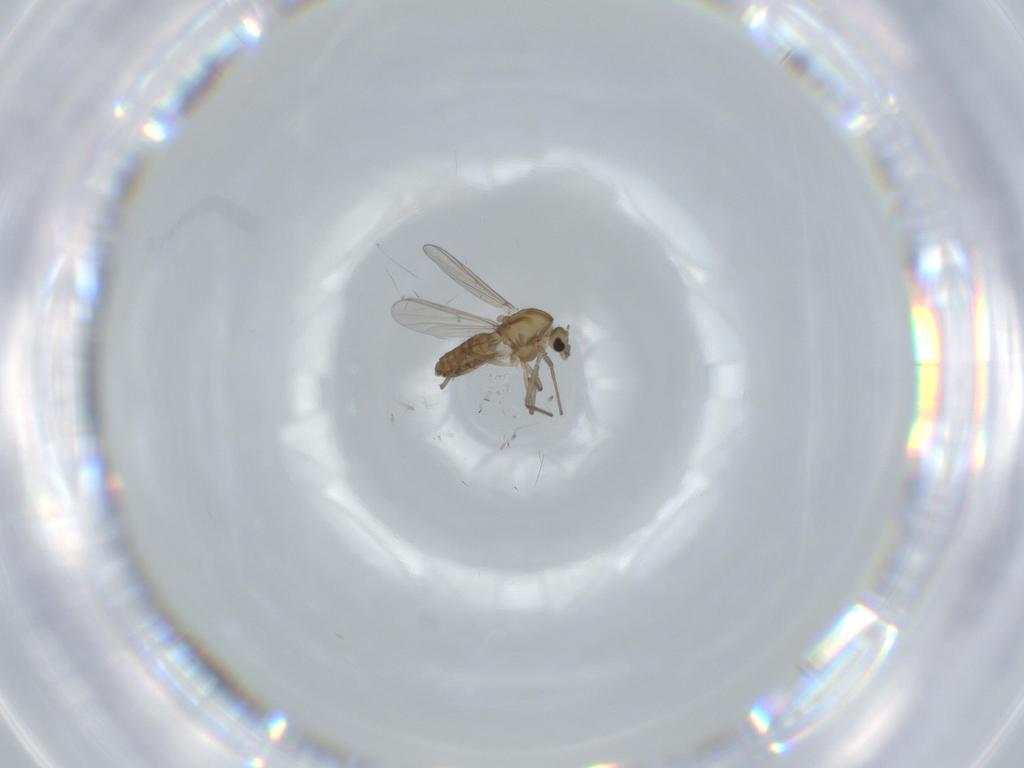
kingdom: Animalia
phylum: Arthropoda
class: Insecta
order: Diptera
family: Chironomidae
